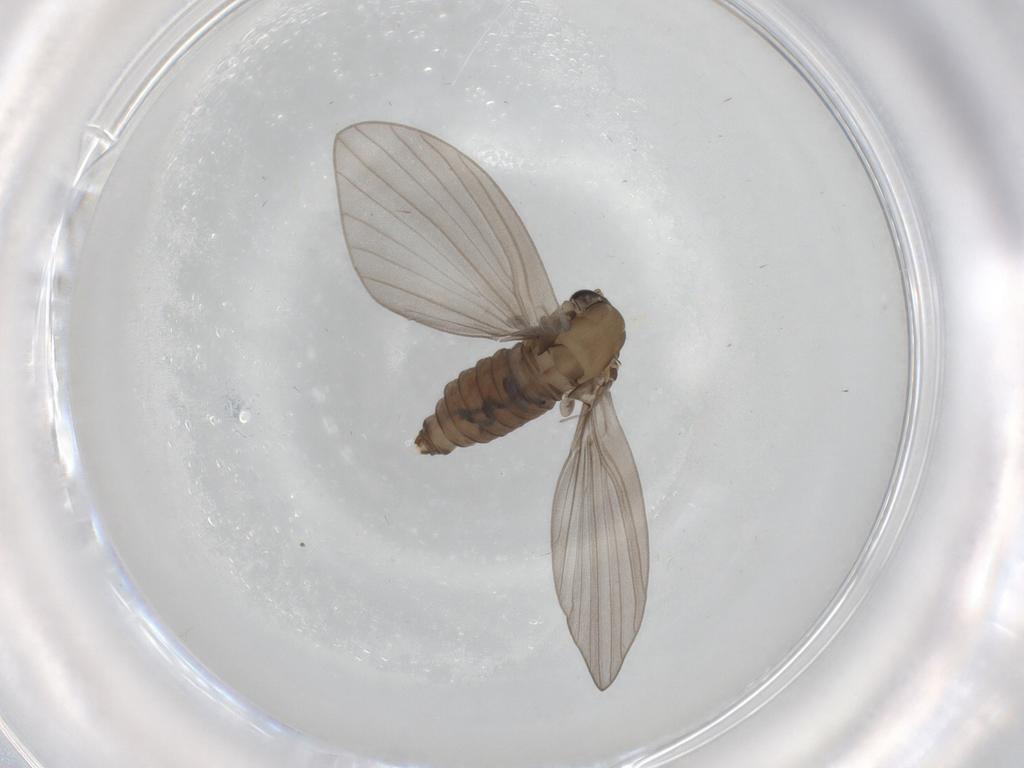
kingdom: Animalia
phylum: Arthropoda
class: Insecta
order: Diptera
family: Psychodidae
